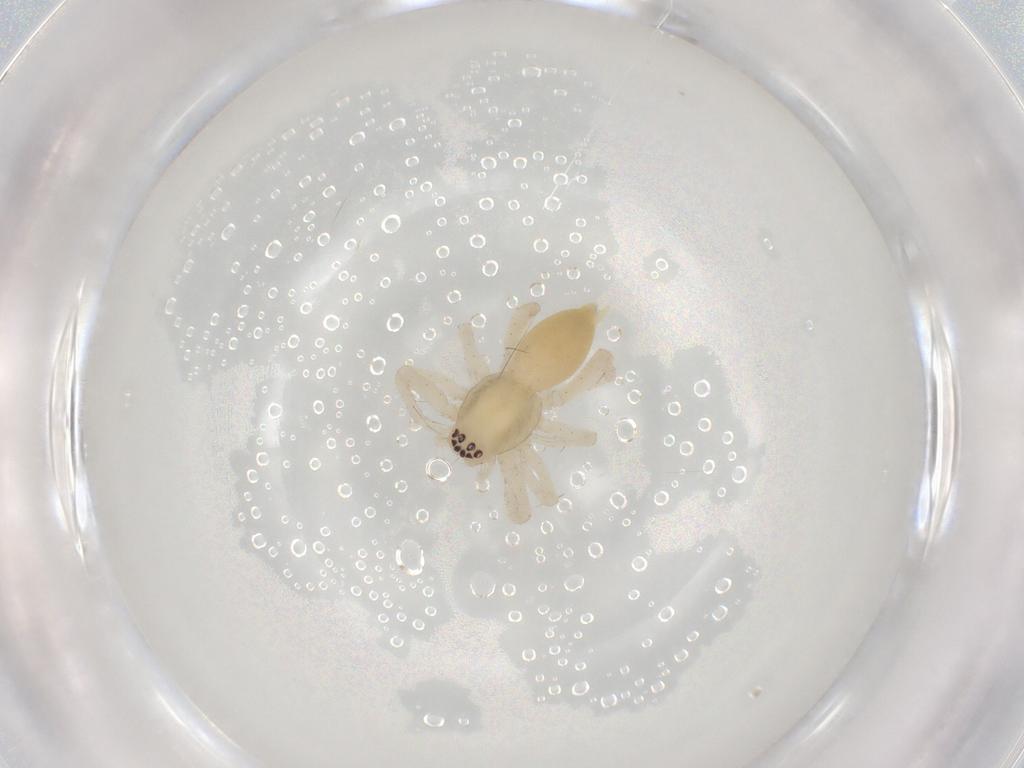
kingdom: Animalia
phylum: Arthropoda
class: Arachnida
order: Araneae
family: Anyphaenidae
